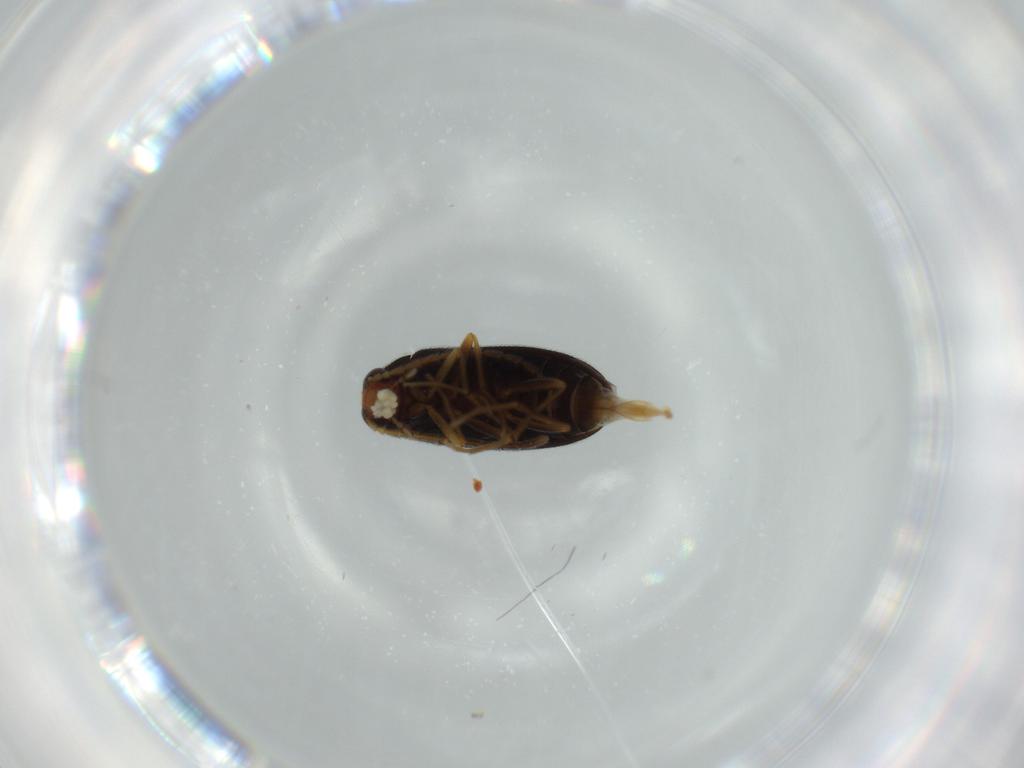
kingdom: Animalia
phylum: Arthropoda
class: Insecta
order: Coleoptera
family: Melandryidae
